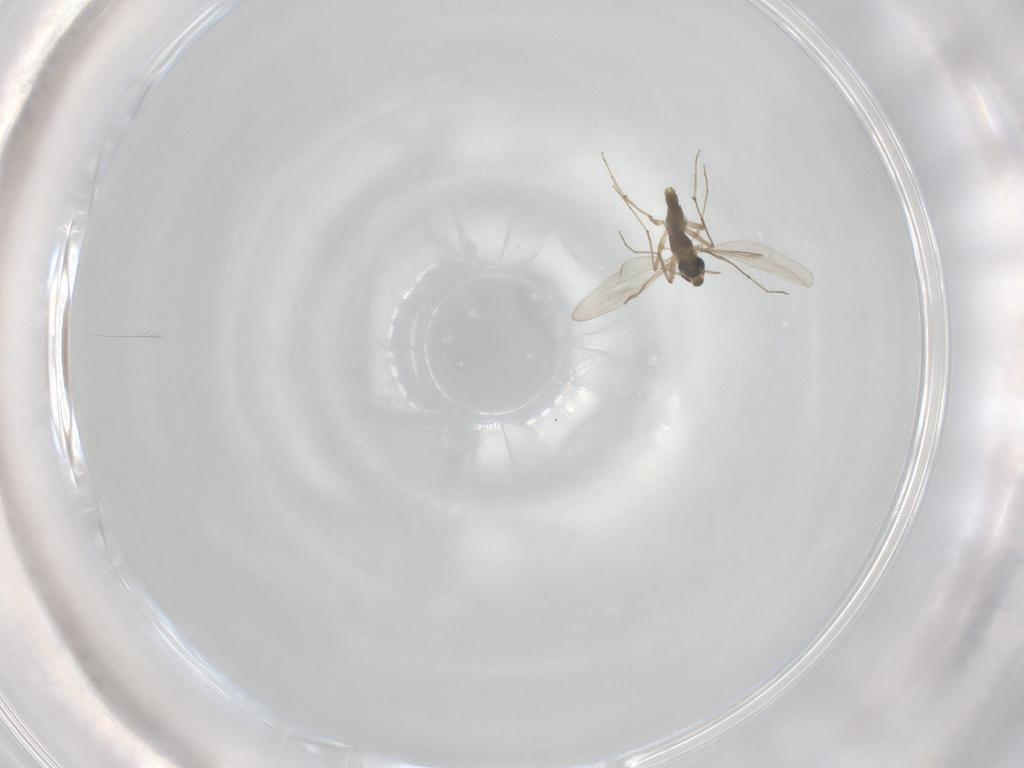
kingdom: Animalia
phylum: Arthropoda
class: Insecta
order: Diptera
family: Chironomidae
